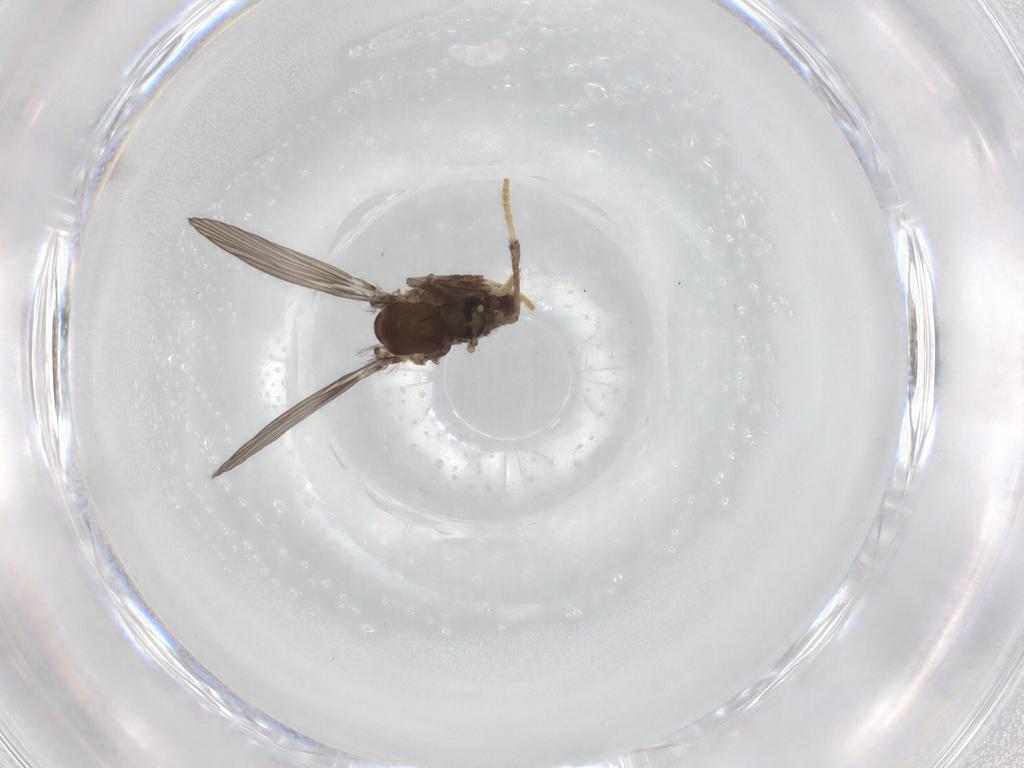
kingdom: Animalia
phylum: Arthropoda
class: Insecta
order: Diptera
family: Psychodidae
